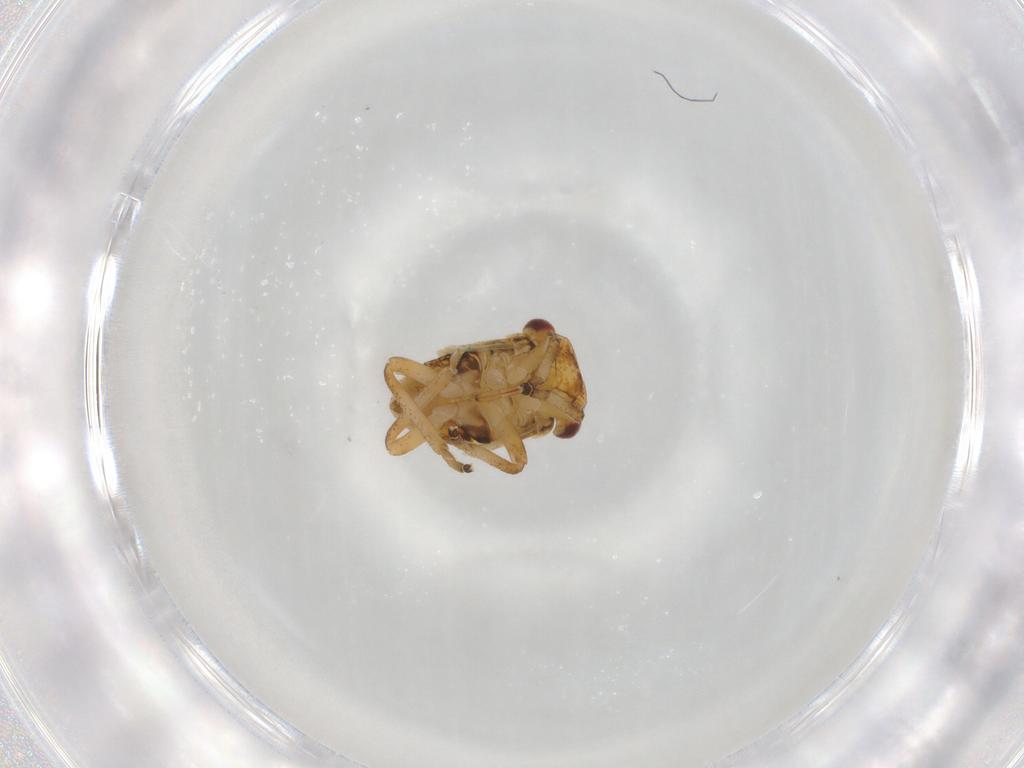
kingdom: Animalia
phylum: Arthropoda
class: Insecta
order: Hemiptera
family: Cicadellidae
